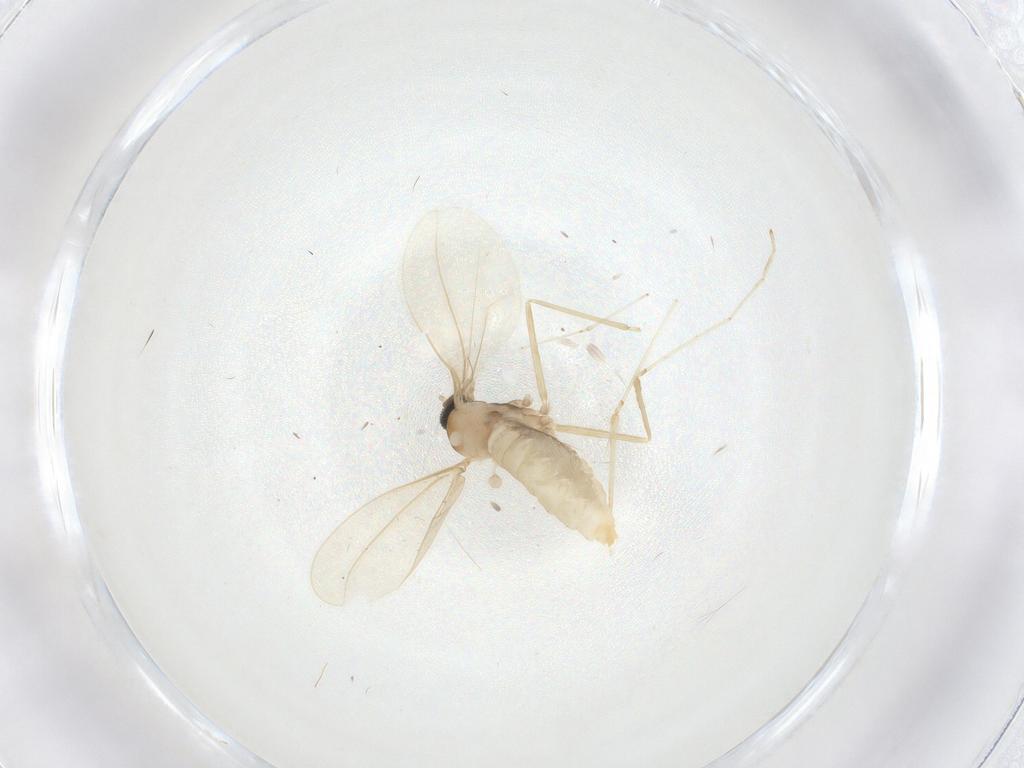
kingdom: Animalia
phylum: Arthropoda
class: Insecta
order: Diptera
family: Cecidomyiidae
